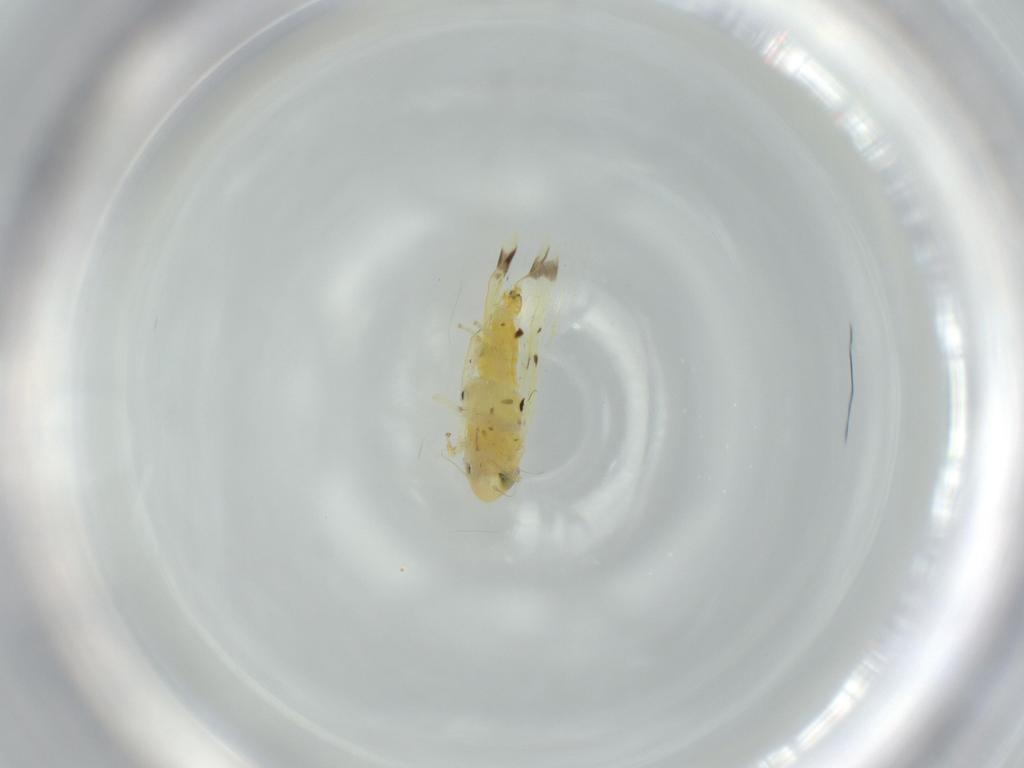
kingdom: Animalia
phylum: Arthropoda
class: Insecta
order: Hemiptera
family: Cicadellidae
